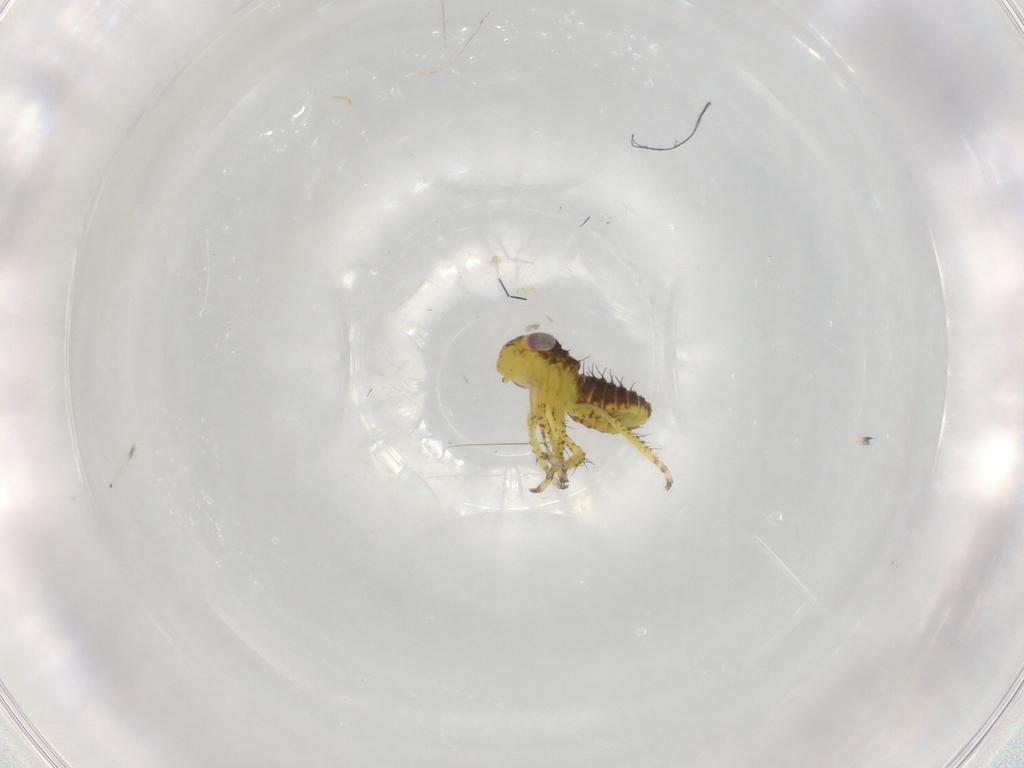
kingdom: Animalia
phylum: Arthropoda
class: Insecta
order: Hemiptera
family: Cicadellidae
